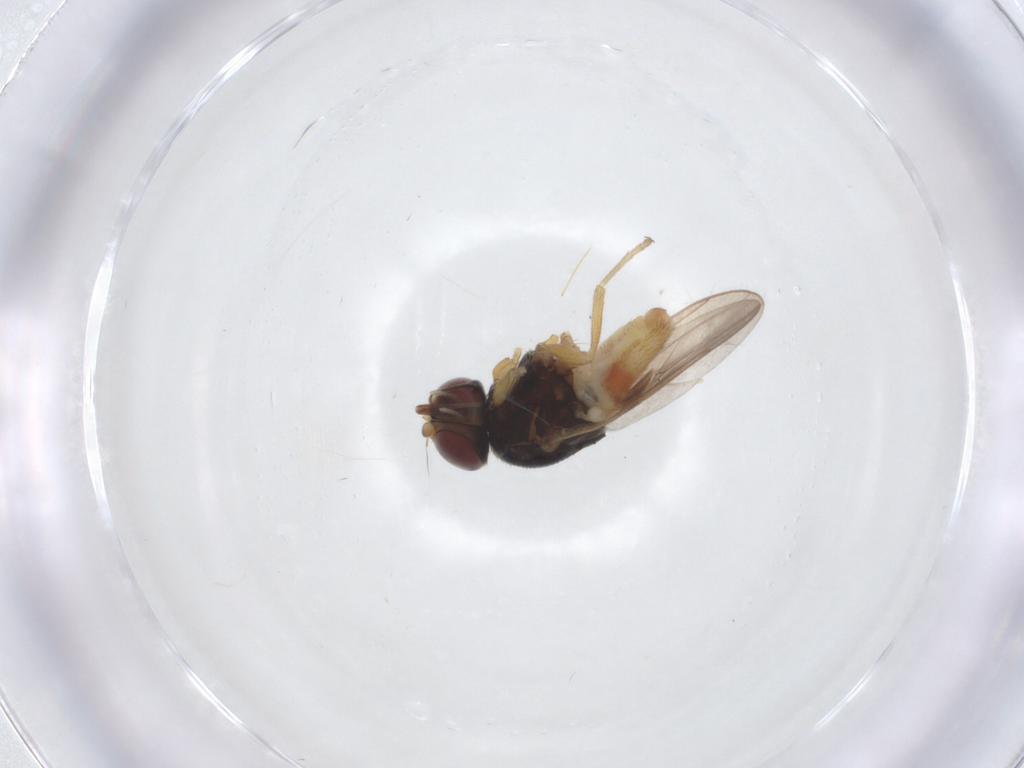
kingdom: Animalia
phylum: Arthropoda
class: Insecta
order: Diptera
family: Chloropidae
